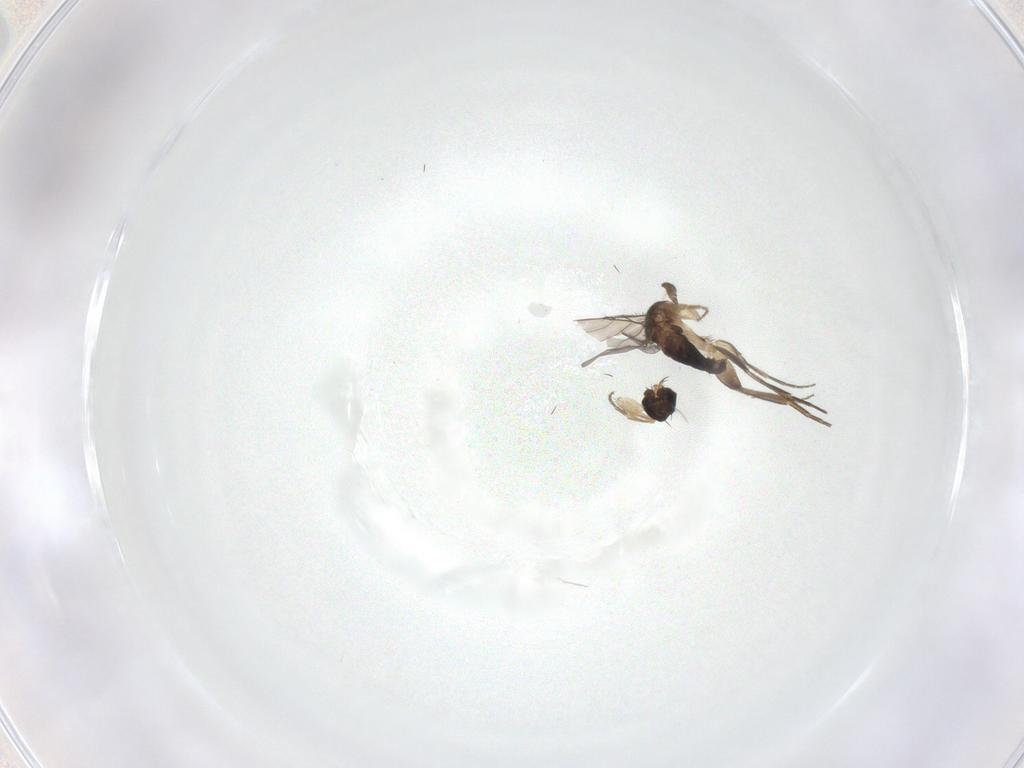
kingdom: Animalia
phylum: Arthropoda
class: Insecta
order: Diptera
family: Phoridae
